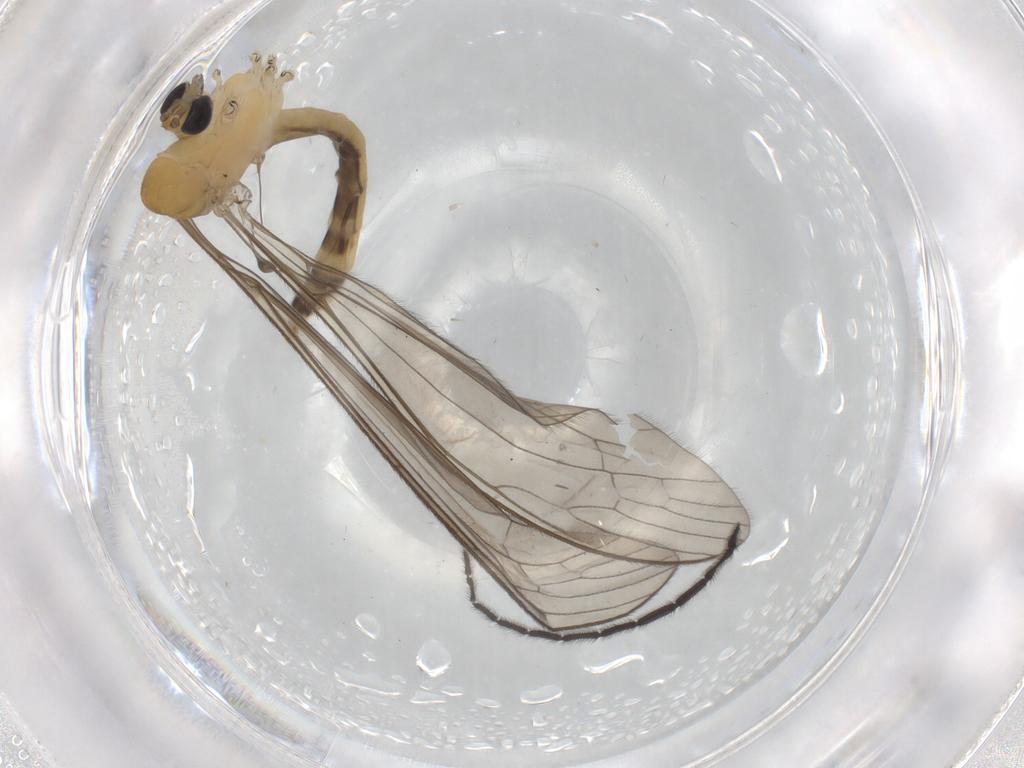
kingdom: Animalia
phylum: Arthropoda
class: Insecta
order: Diptera
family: Limoniidae
